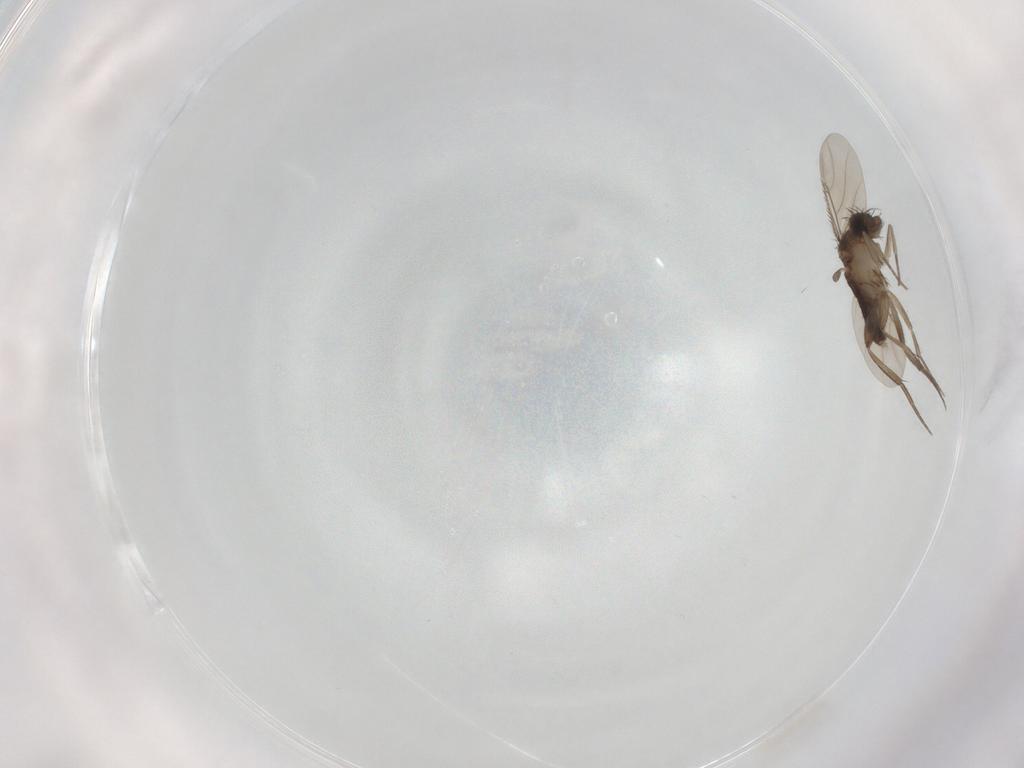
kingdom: Animalia
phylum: Arthropoda
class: Insecta
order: Diptera
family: Phoridae
